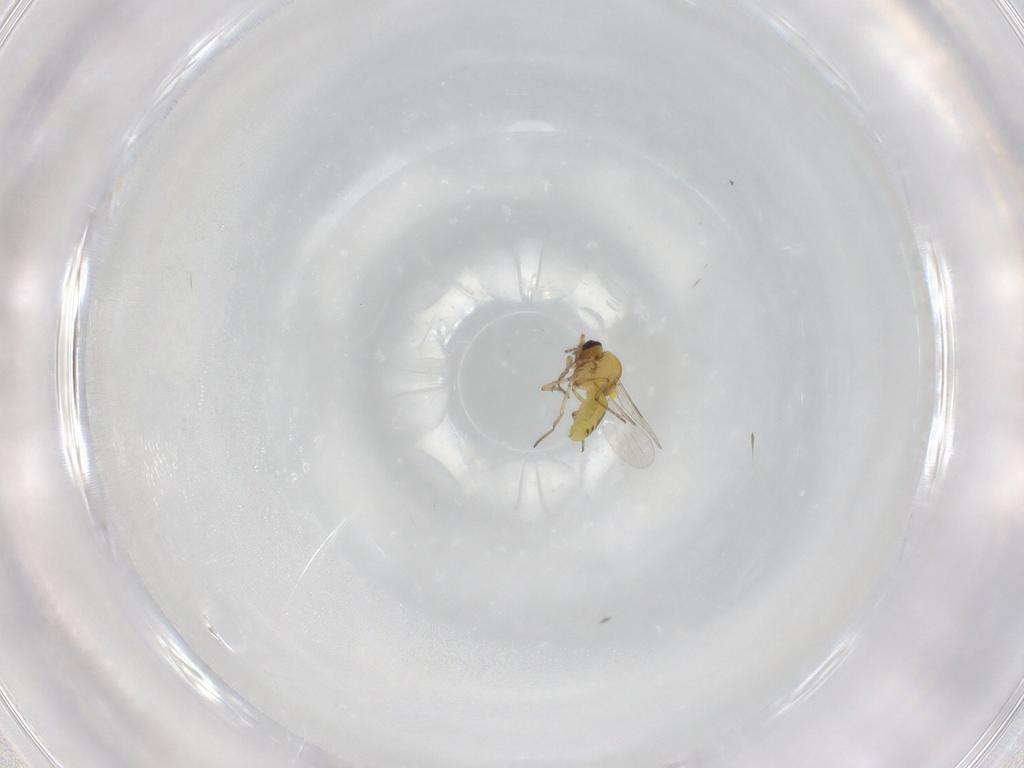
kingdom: Animalia
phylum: Arthropoda
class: Insecta
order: Diptera
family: Ceratopogonidae
